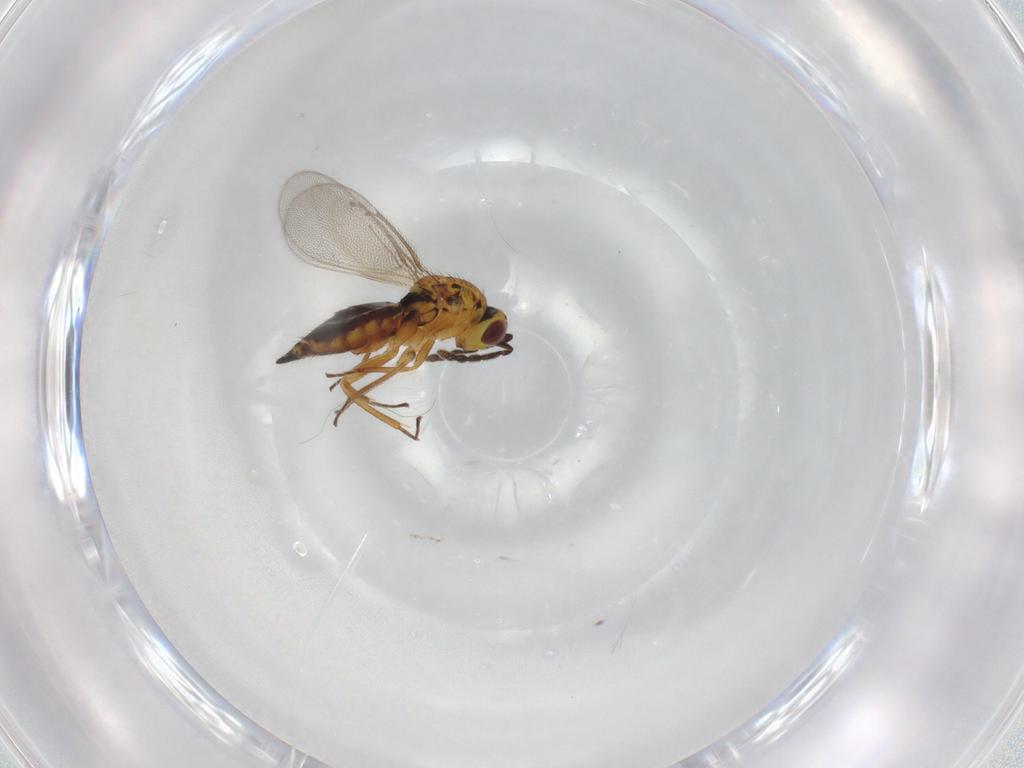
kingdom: Animalia
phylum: Arthropoda
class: Insecta
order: Hymenoptera
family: Eulophidae
